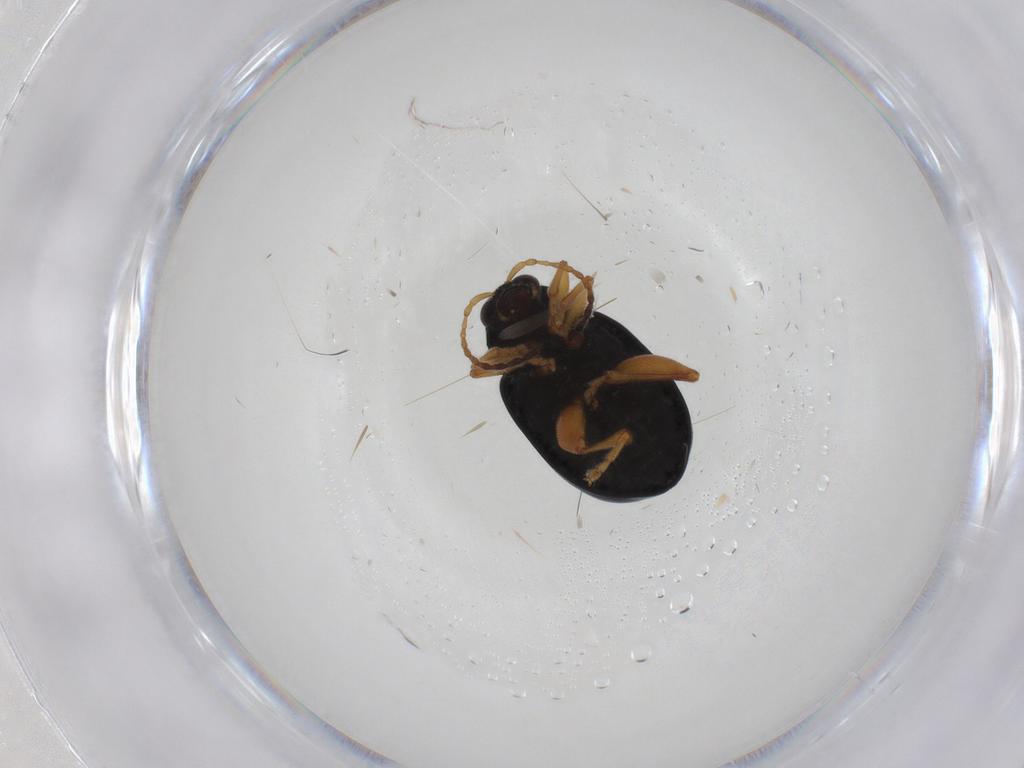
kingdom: Animalia
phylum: Arthropoda
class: Insecta
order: Coleoptera
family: Chrysomelidae
